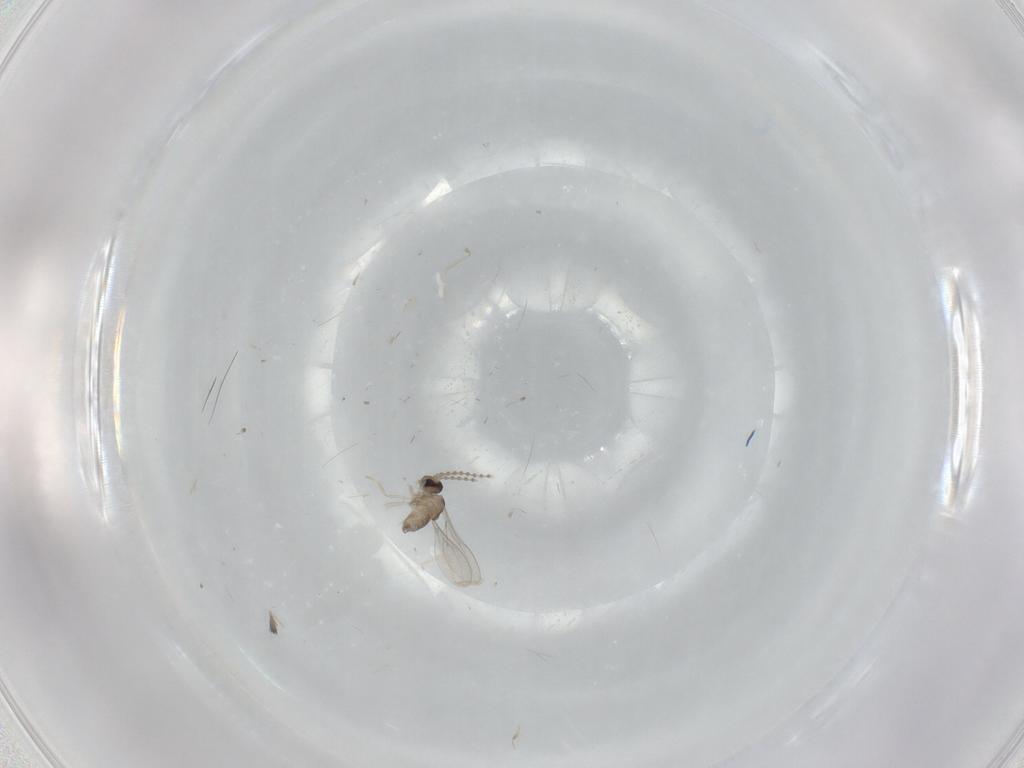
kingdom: Animalia
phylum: Arthropoda
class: Insecta
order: Diptera
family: Cecidomyiidae
